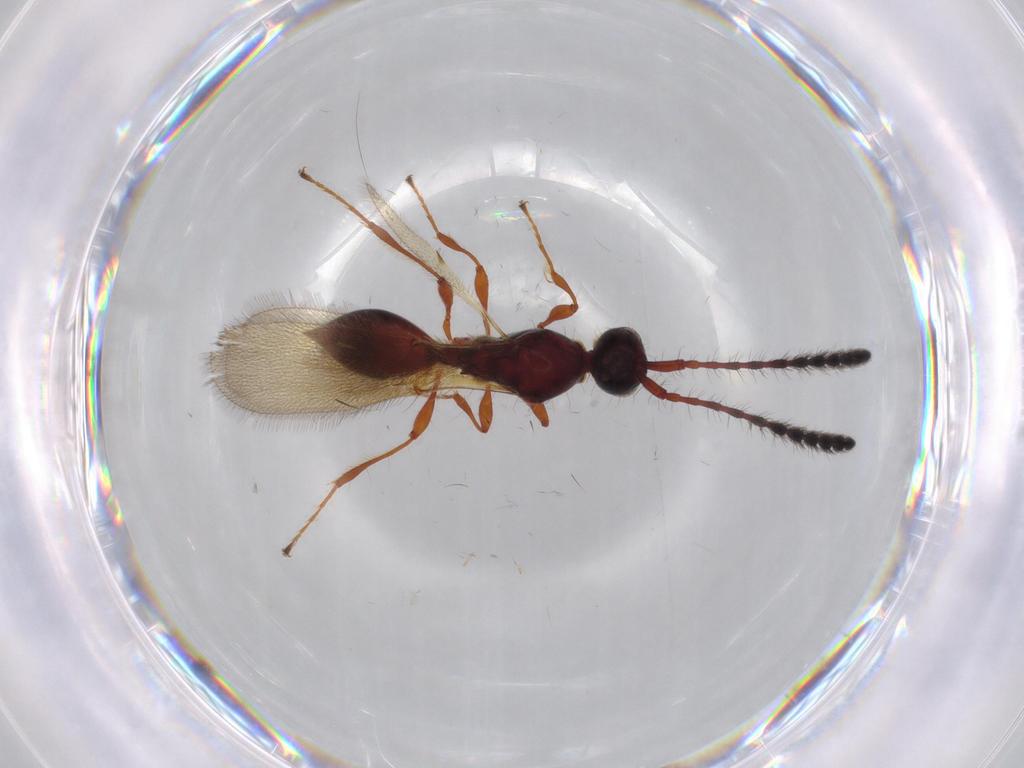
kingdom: Animalia
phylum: Arthropoda
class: Insecta
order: Hymenoptera
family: Diapriidae
